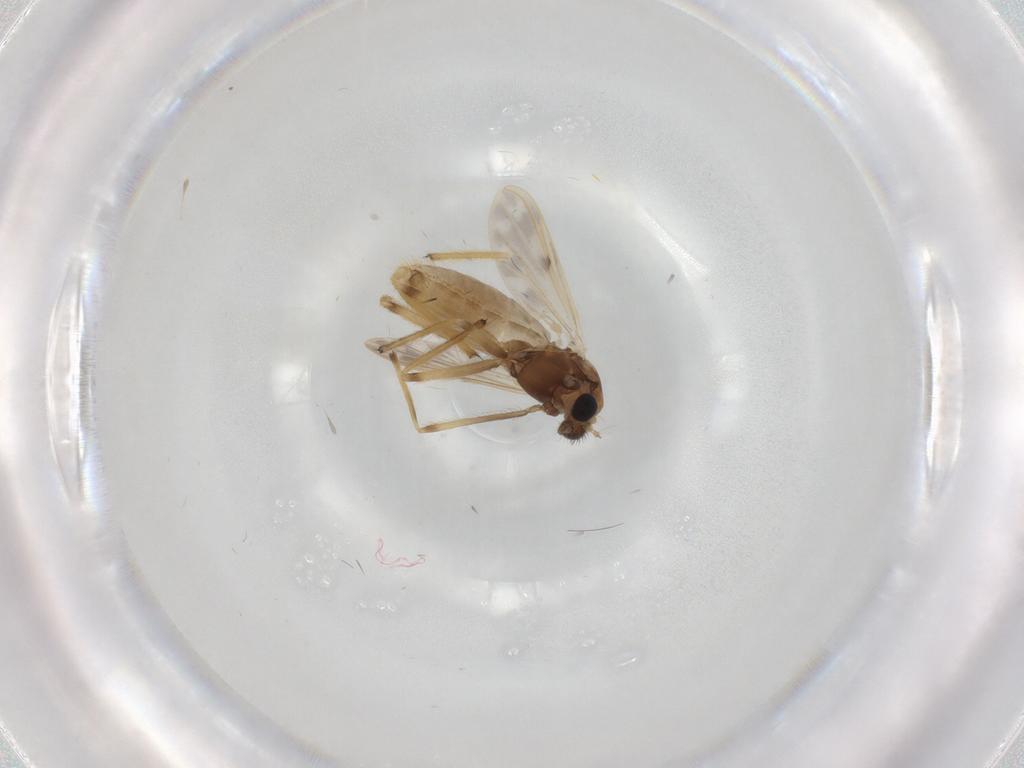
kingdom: Animalia
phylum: Arthropoda
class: Insecta
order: Diptera
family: Chironomidae
